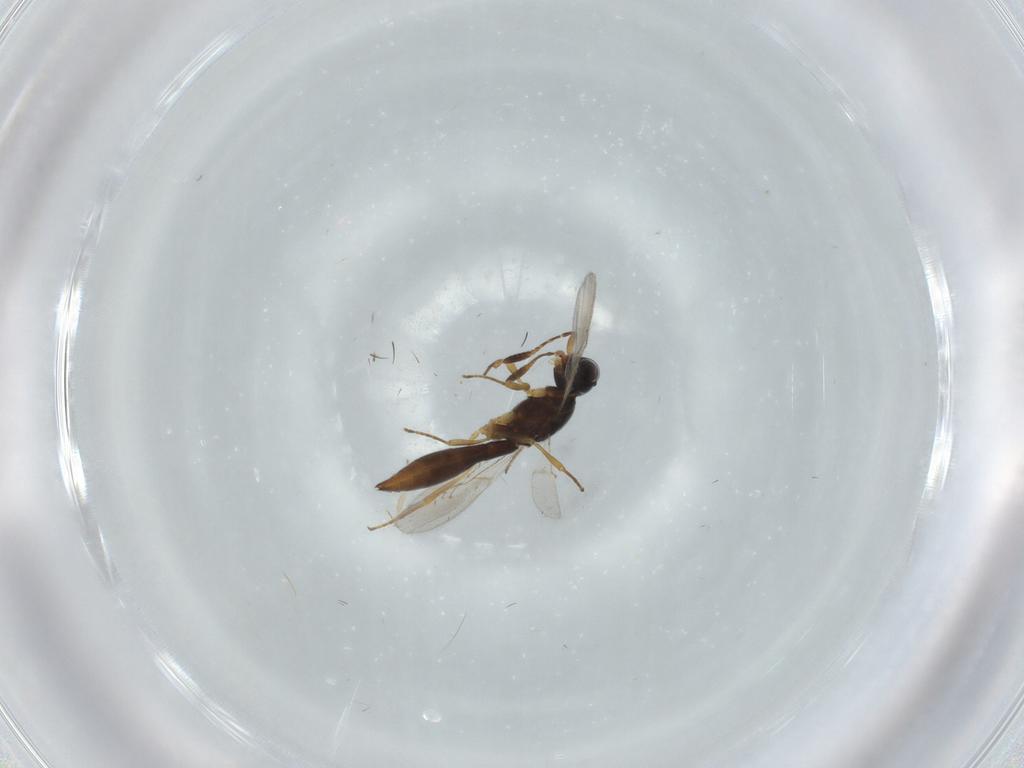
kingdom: Animalia
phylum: Arthropoda
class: Insecta
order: Hymenoptera
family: Scelionidae
